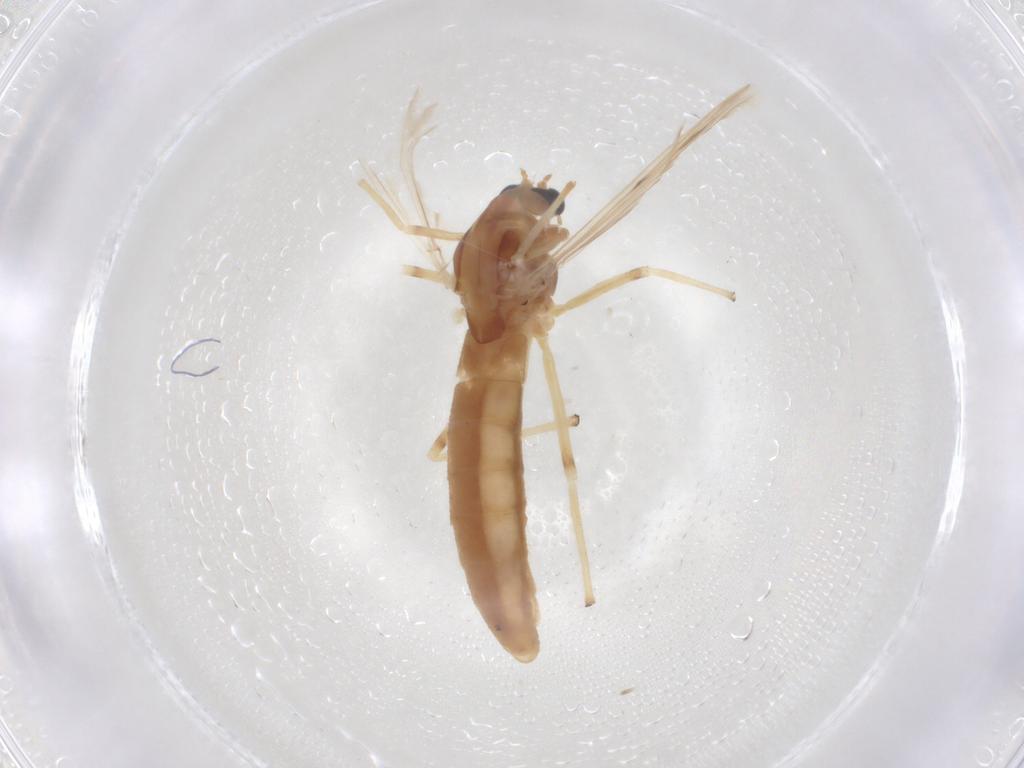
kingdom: Animalia
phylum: Arthropoda
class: Insecta
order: Diptera
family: Chironomidae
